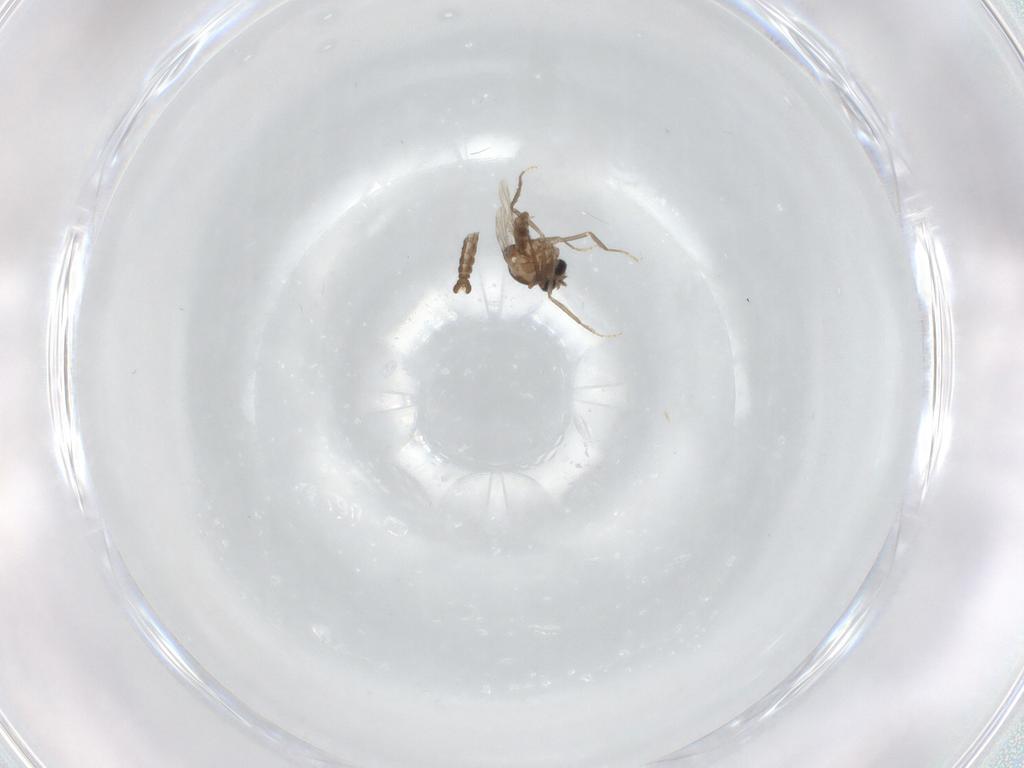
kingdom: Animalia
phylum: Arthropoda
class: Insecta
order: Diptera
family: Ceratopogonidae
